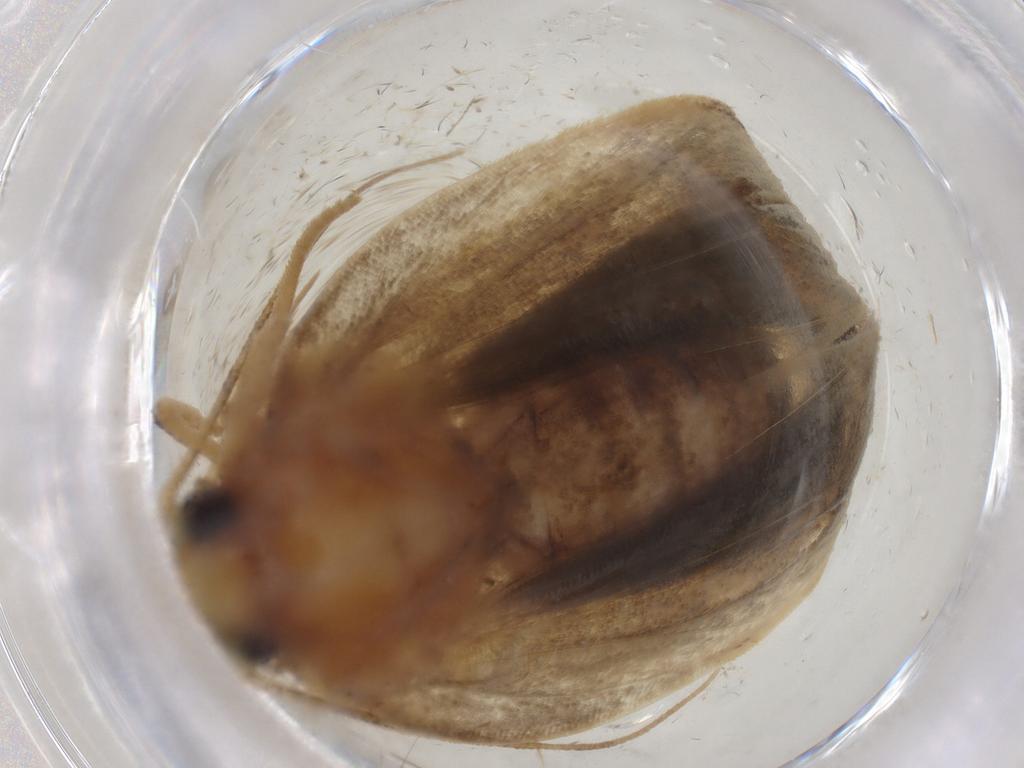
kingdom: Animalia
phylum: Arthropoda
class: Insecta
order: Lepidoptera
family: Depressariidae
